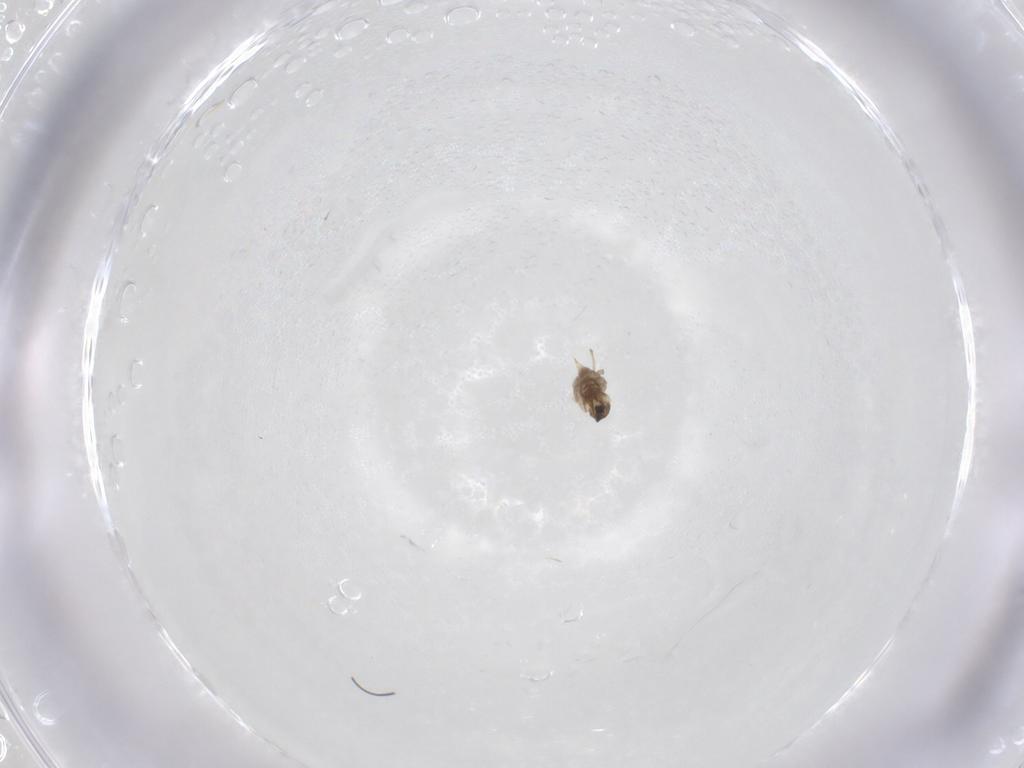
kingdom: Animalia
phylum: Arthropoda
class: Insecta
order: Diptera
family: Cecidomyiidae
